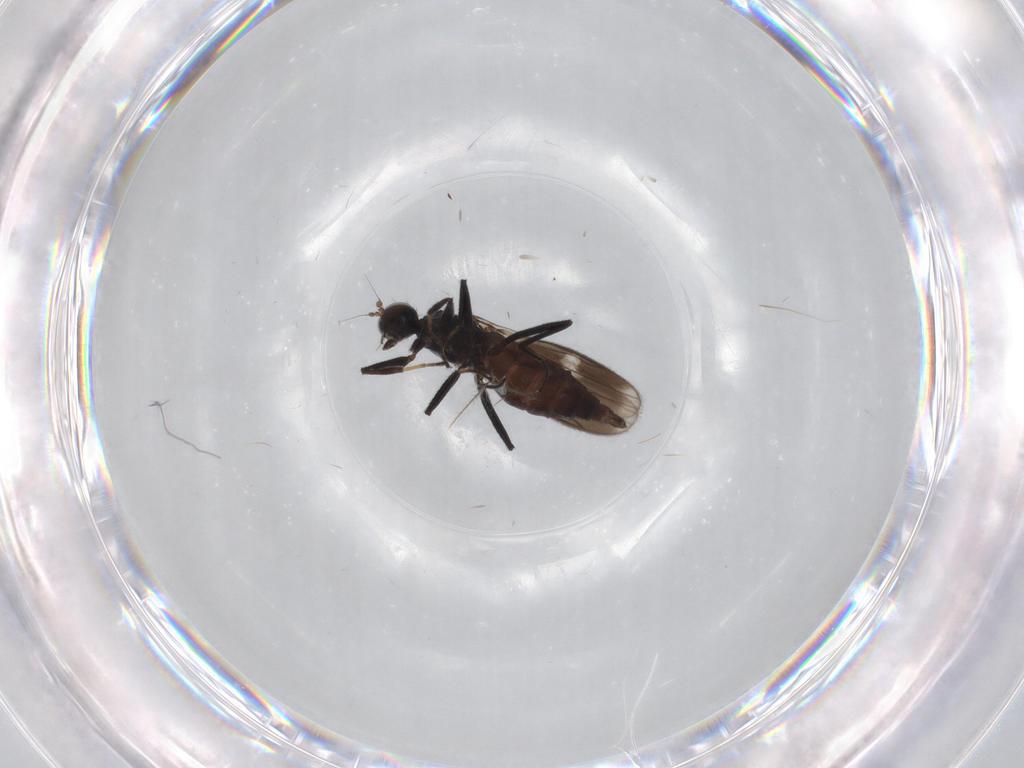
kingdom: Animalia
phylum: Arthropoda
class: Insecta
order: Diptera
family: Hybotidae
